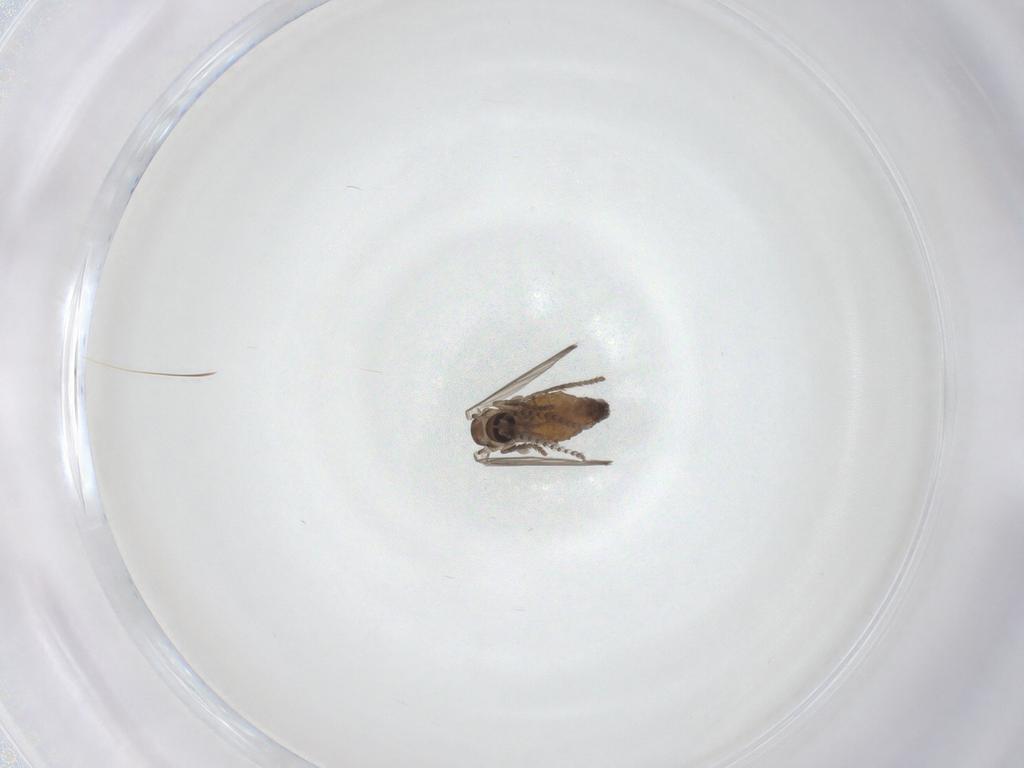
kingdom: Animalia
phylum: Arthropoda
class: Insecta
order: Diptera
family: Psychodidae
